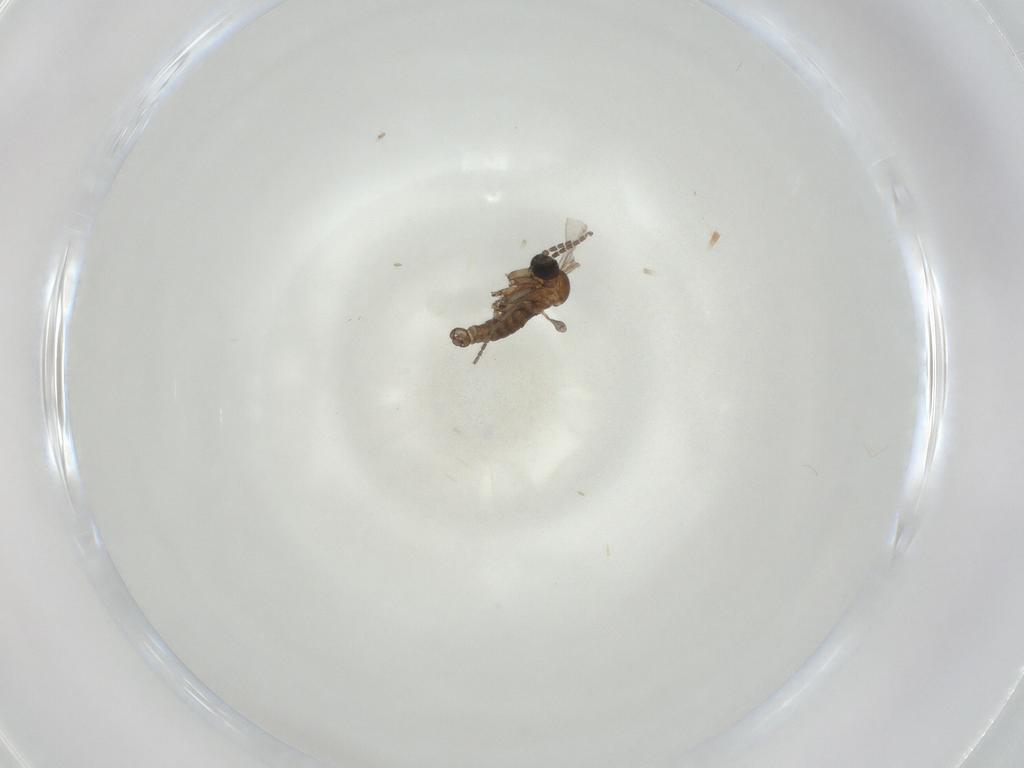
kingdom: Animalia
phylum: Arthropoda
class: Insecta
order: Diptera
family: Sciaridae
